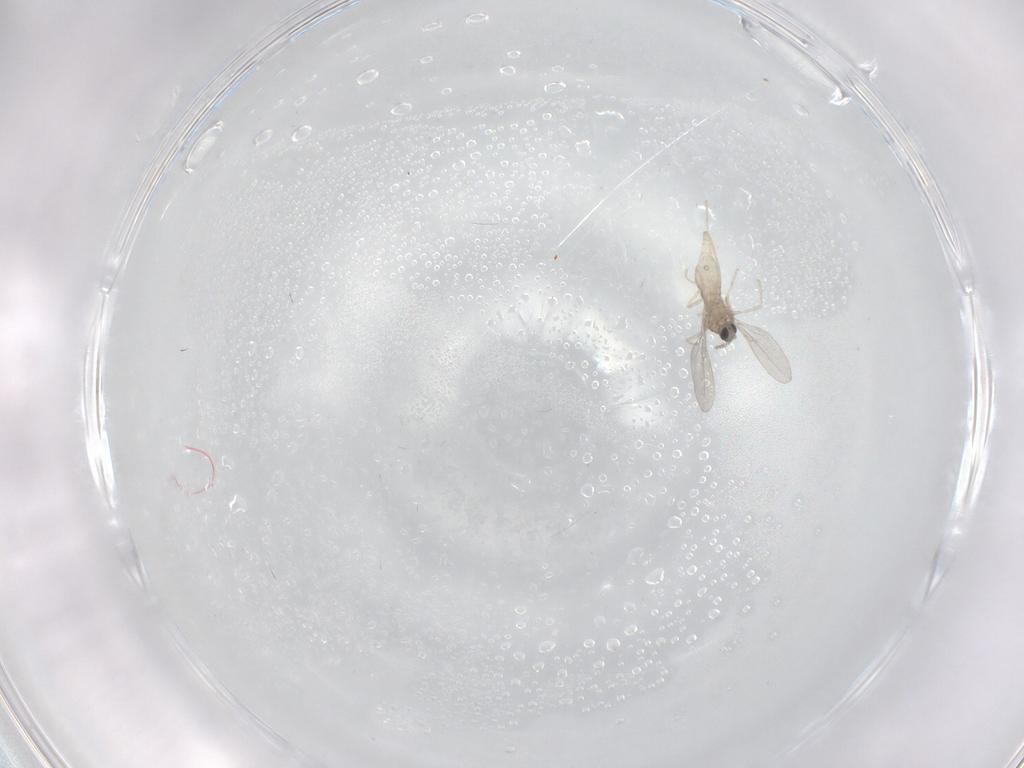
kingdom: Animalia
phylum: Arthropoda
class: Insecta
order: Diptera
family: Cecidomyiidae
